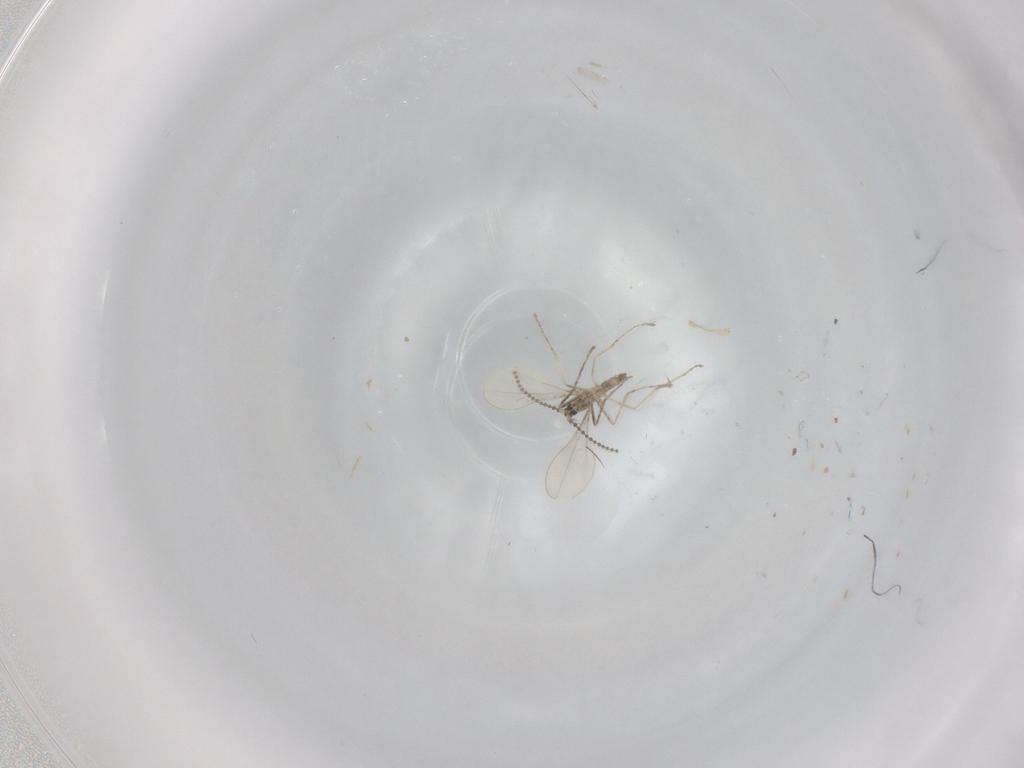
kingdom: Animalia
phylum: Arthropoda
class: Insecta
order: Diptera
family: Cecidomyiidae
